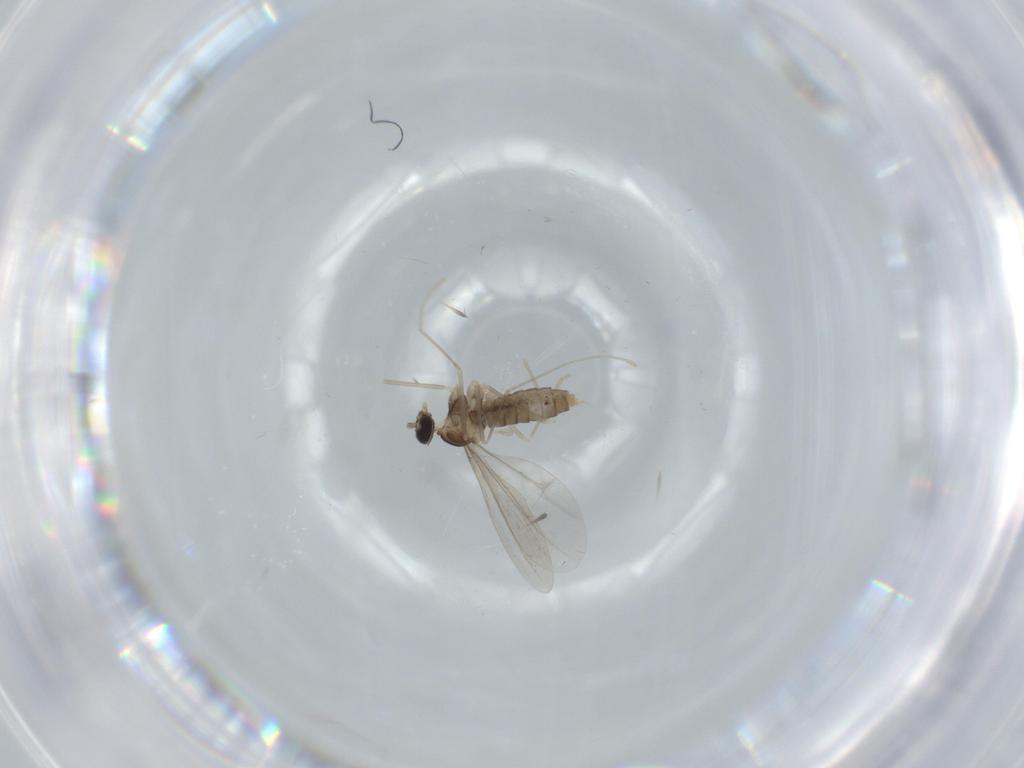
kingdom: Animalia
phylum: Arthropoda
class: Insecta
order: Diptera
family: Cecidomyiidae
